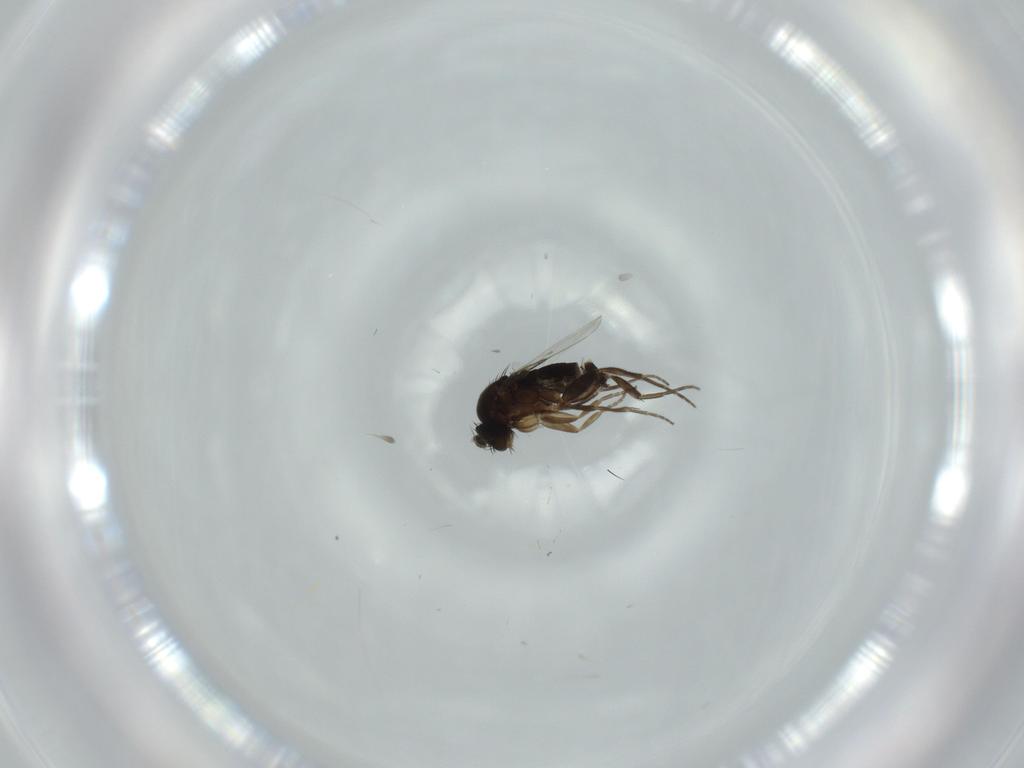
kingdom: Animalia
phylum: Arthropoda
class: Insecta
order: Diptera
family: Phoridae
